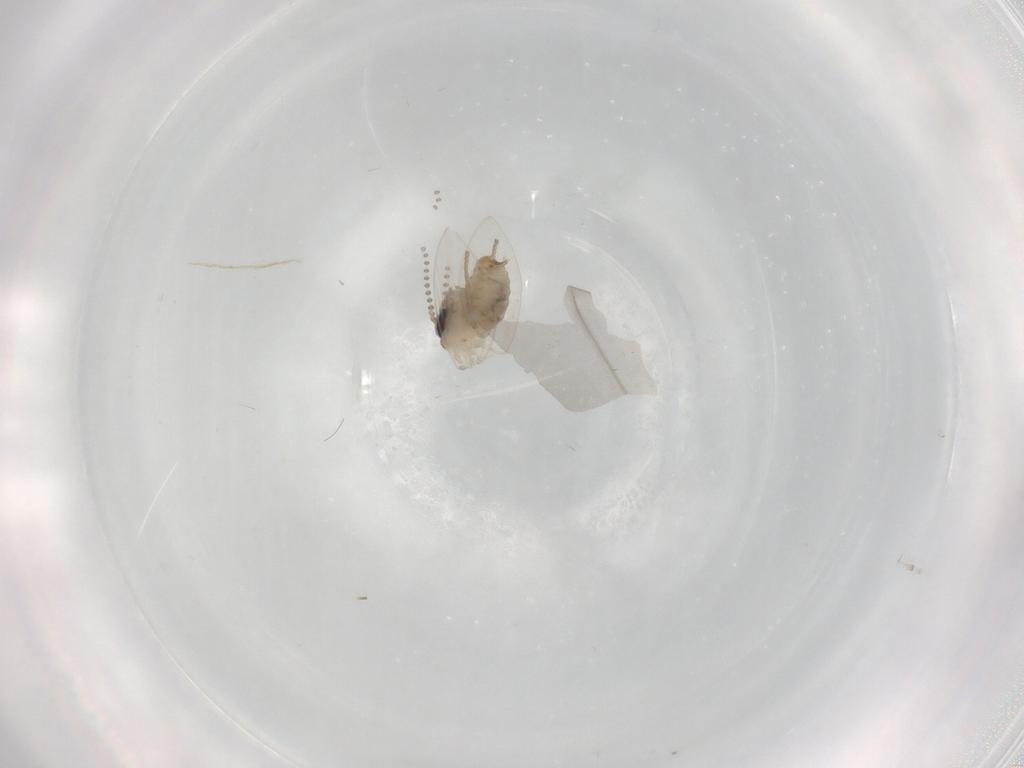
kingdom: Animalia
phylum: Arthropoda
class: Insecta
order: Diptera
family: Psychodidae
